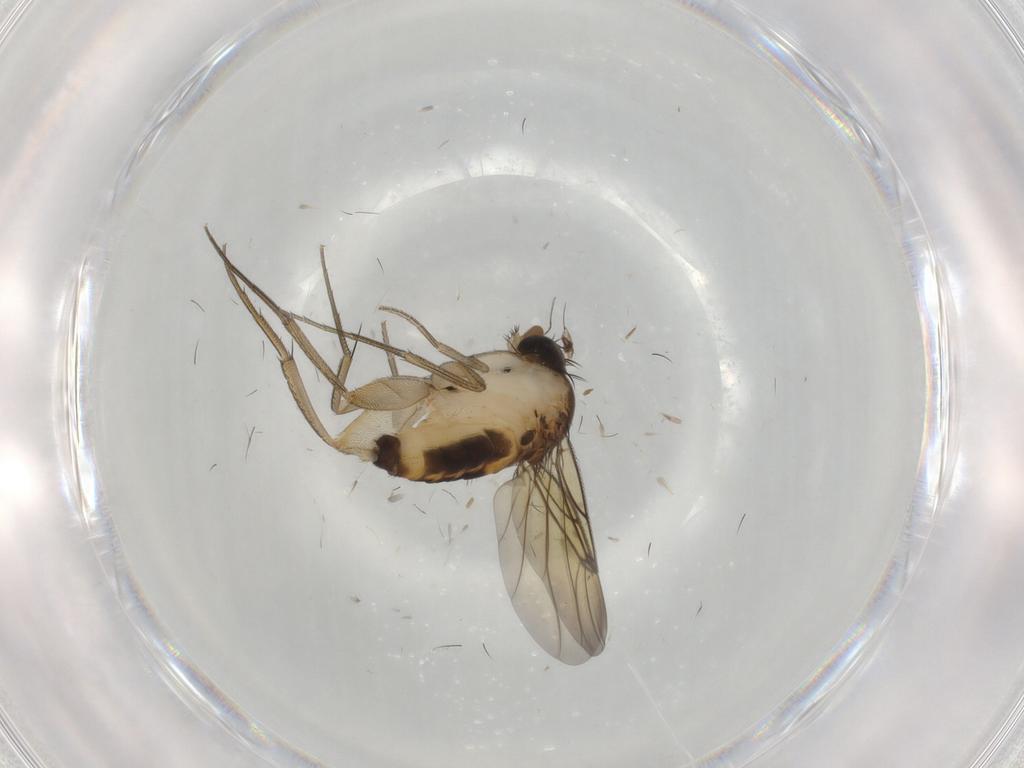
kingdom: Animalia
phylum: Arthropoda
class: Insecta
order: Diptera
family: Phoridae
